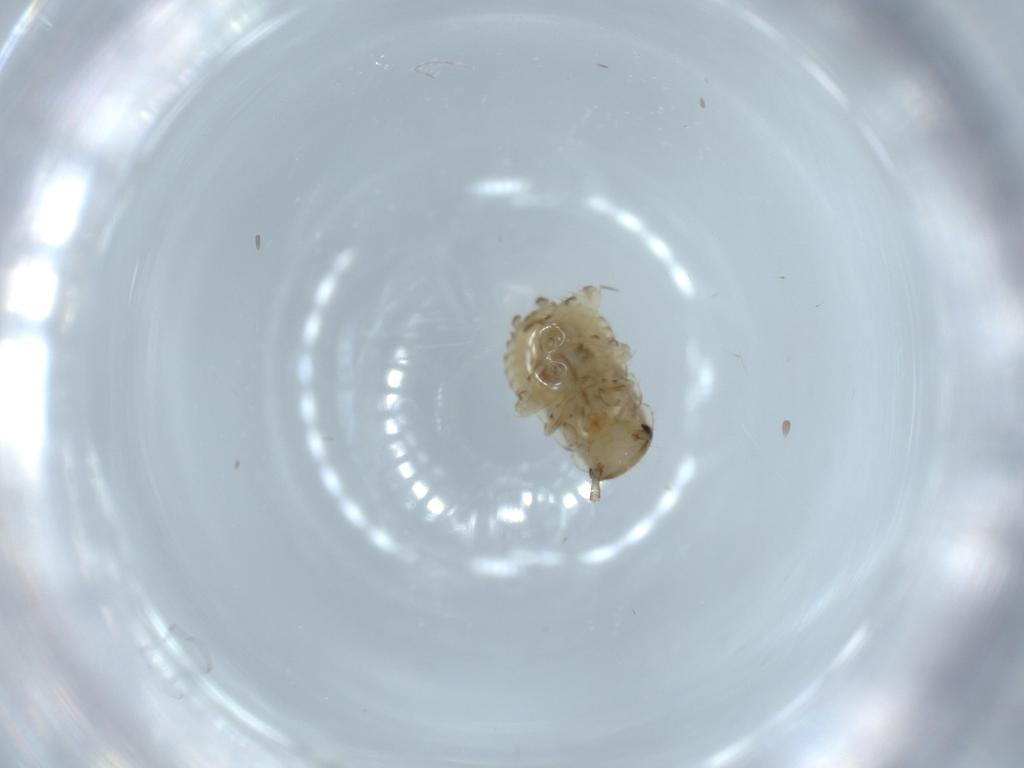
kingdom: Animalia
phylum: Arthropoda
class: Insecta
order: Blattodea
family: Ectobiidae
